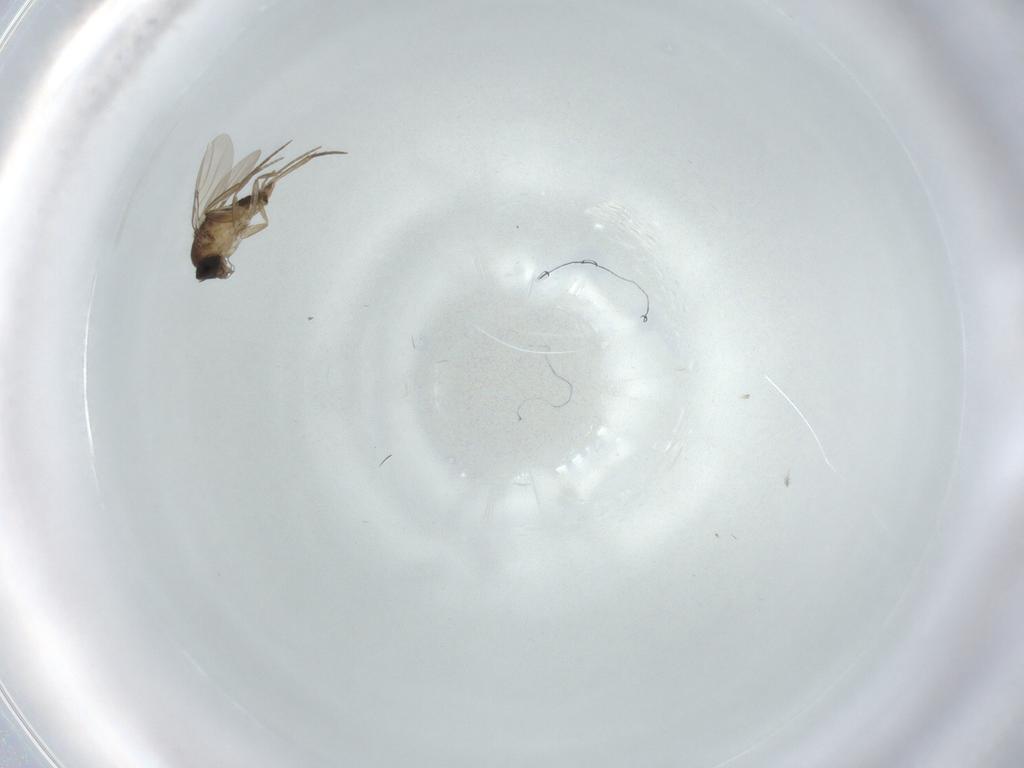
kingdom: Animalia
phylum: Arthropoda
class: Insecta
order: Diptera
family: Phoridae
